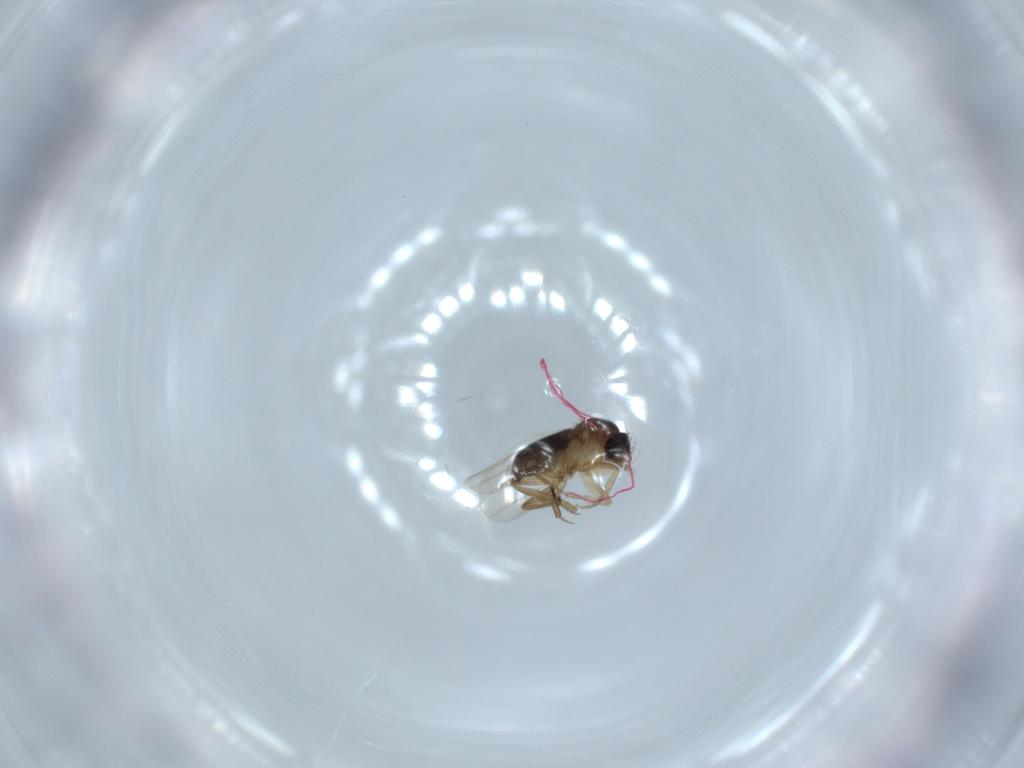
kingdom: Animalia
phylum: Arthropoda
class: Insecta
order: Diptera
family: Phoridae
